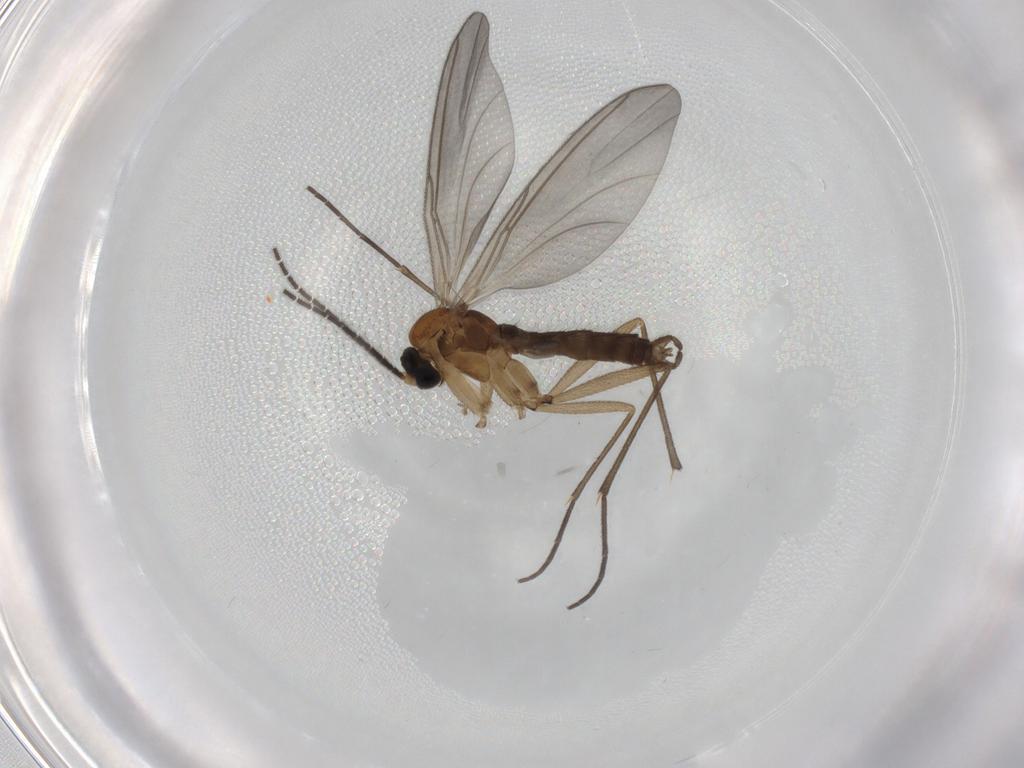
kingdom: Animalia
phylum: Arthropoda
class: Insecta
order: Diptera
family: Sciaridae
